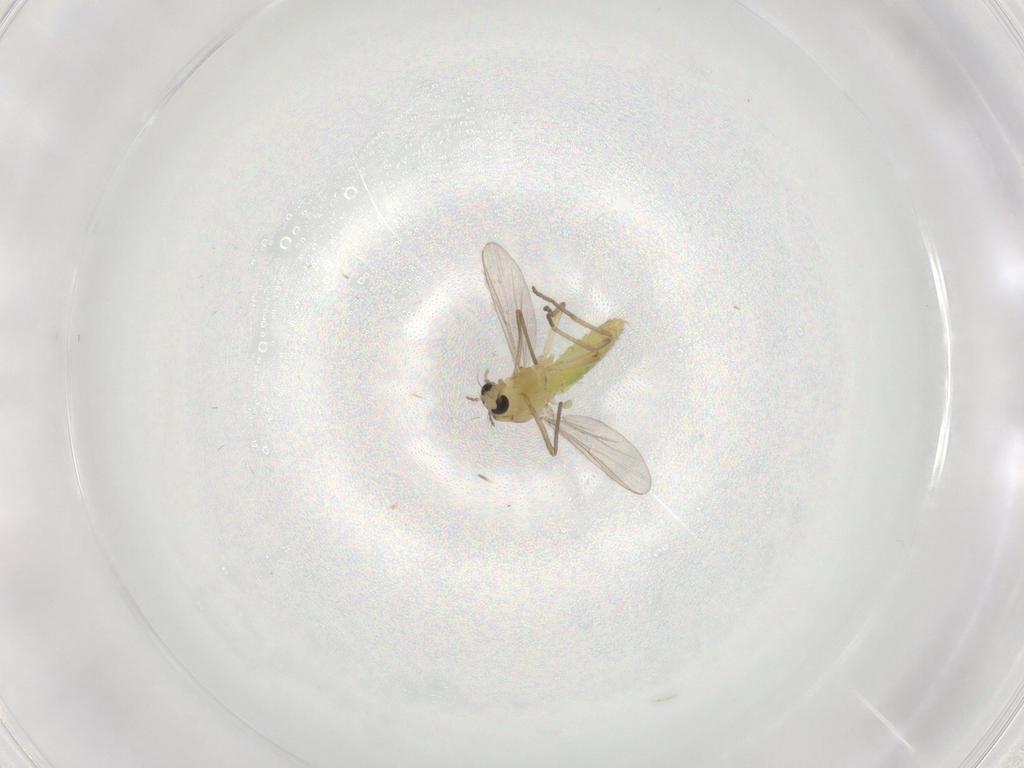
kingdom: Animalia
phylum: Arthropoda
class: Insecta
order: Diptera
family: Chironomidae
